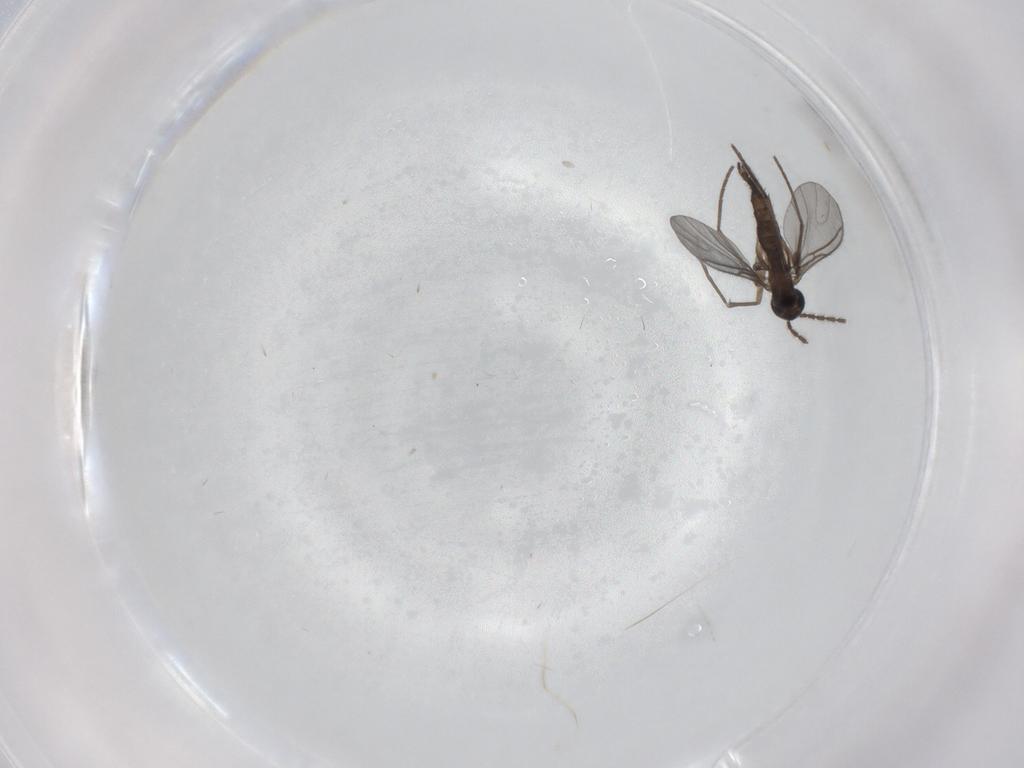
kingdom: Animalia
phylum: Arthropoda
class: Insecta
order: Diptera
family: Sciaridae
